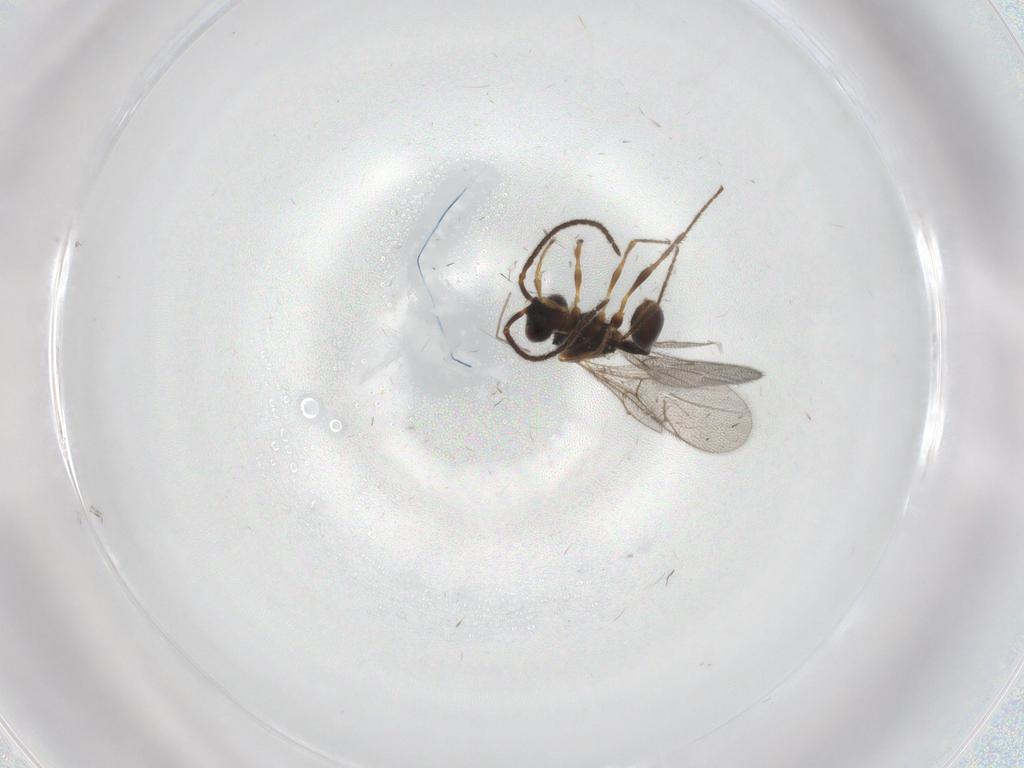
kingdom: Animalia
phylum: Arthropoda
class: Insecta
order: Hymenoptera
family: Diapriidae
